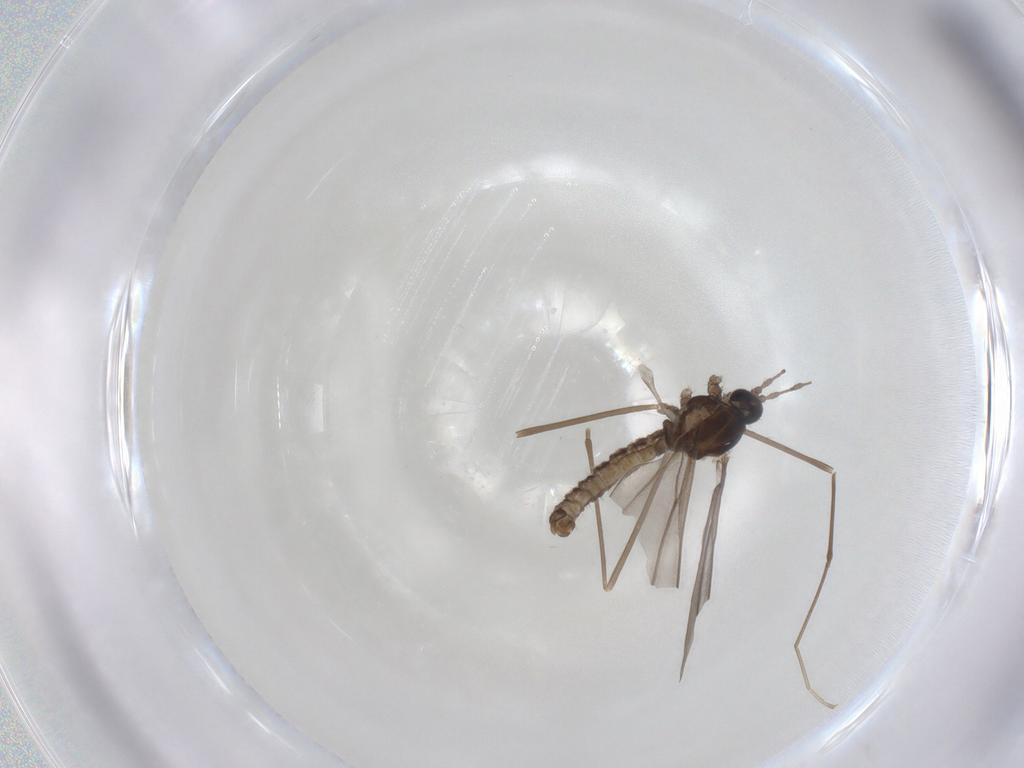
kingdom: Animalia
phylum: Arthropoda
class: Insecta
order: Diptera
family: Cecidomyiidae
